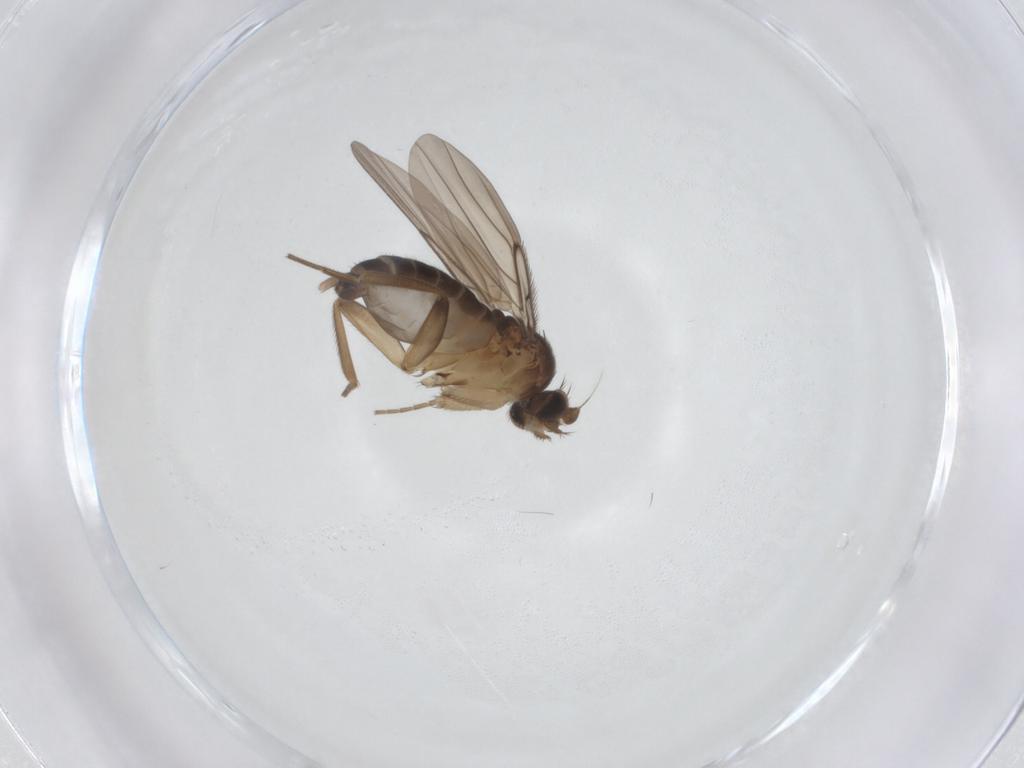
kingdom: Animalia
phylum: Arthropoda
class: Insecta
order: Diptera
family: Phoridae
